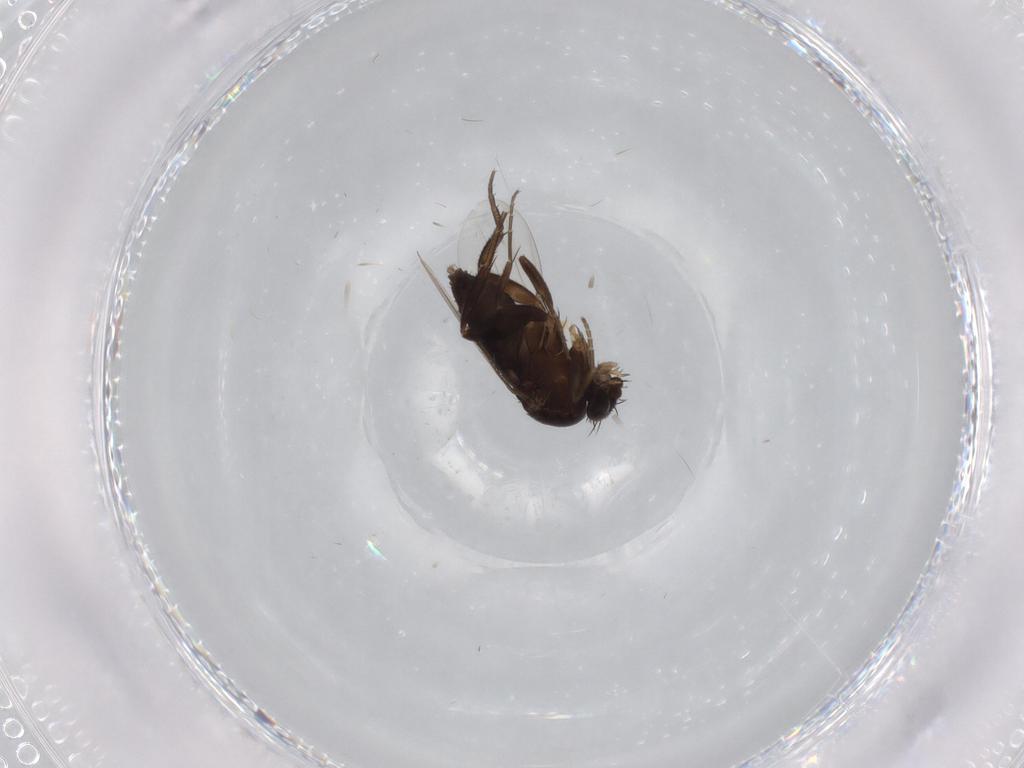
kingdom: Animalia
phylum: Arthropoda
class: Insecta
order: Diptera
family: Phoridae
